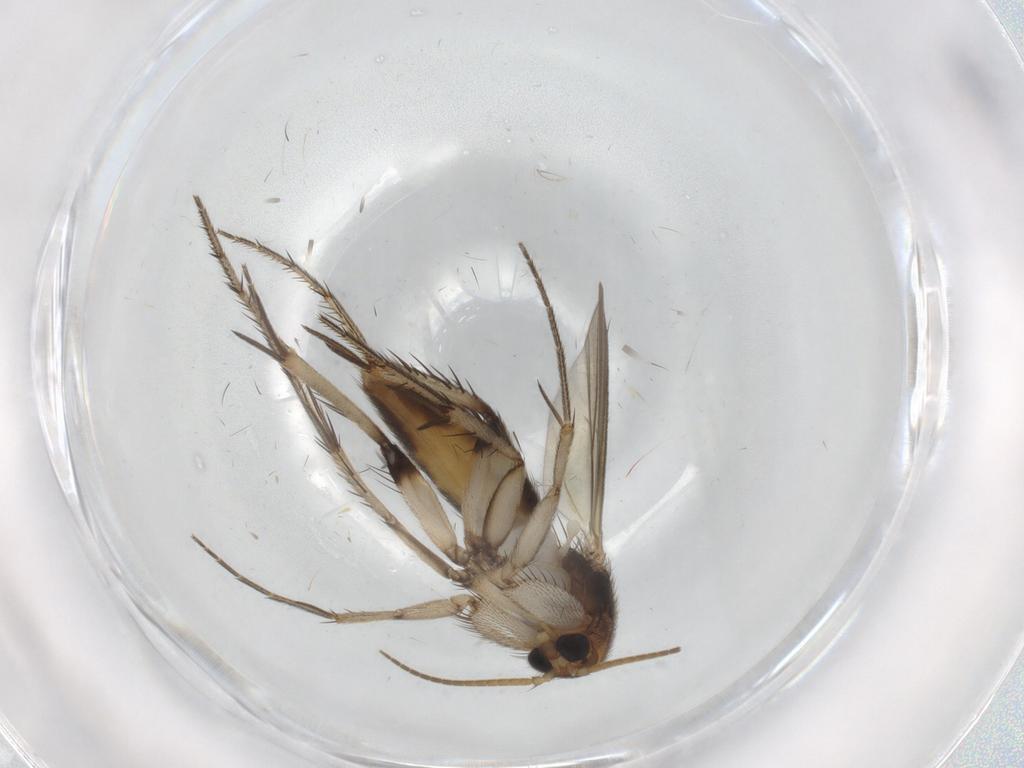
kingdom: Animalia
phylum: Arthropoda
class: Insecta
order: Diptera
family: Mycetophilidae
